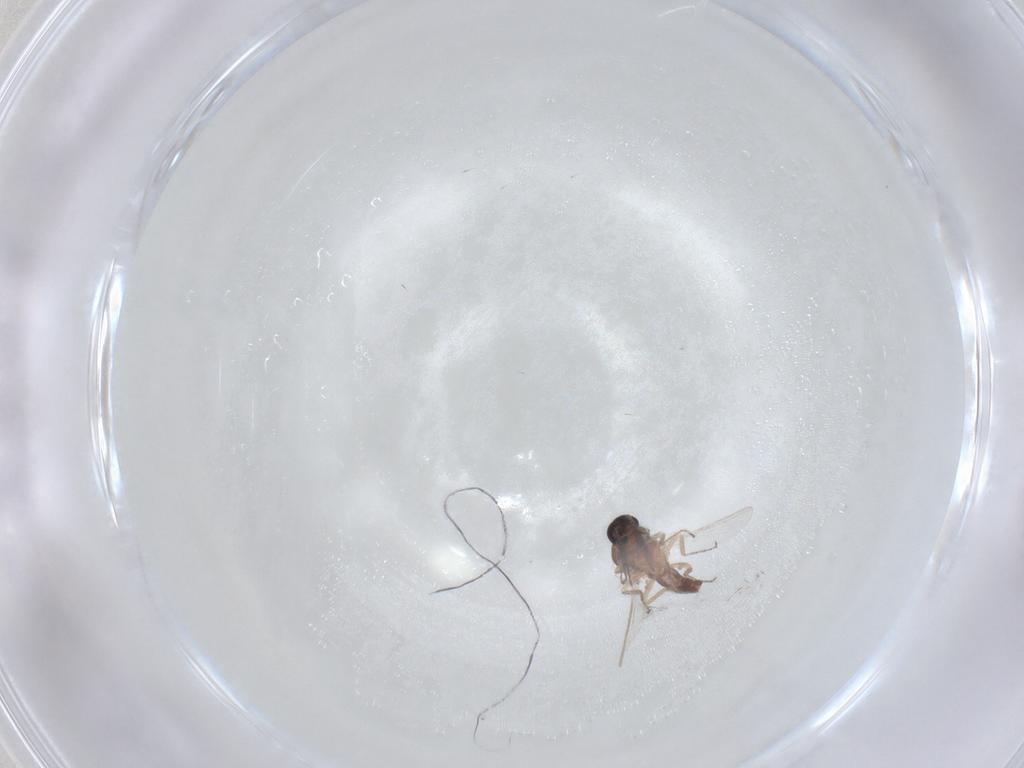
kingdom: Animalia
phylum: Arthropoda
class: Insecta
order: Diptera
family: Ceratopogonidae
